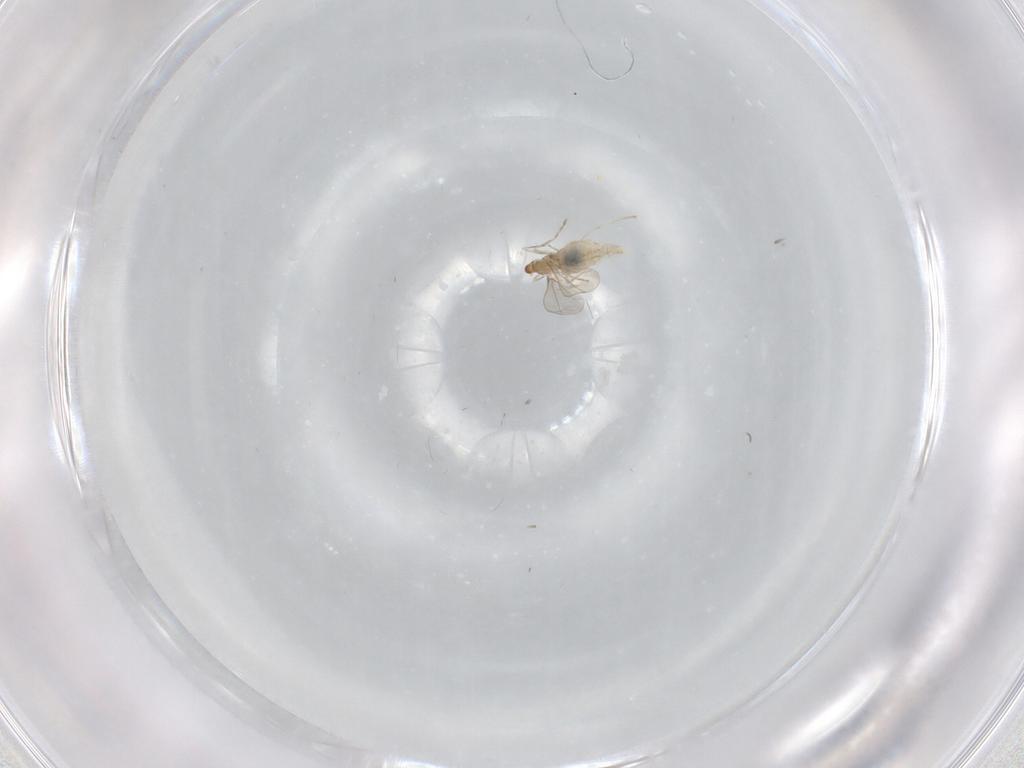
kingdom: Animalia
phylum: Arthropoda
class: Insecta
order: Diptera
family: Cecidomyiidae
